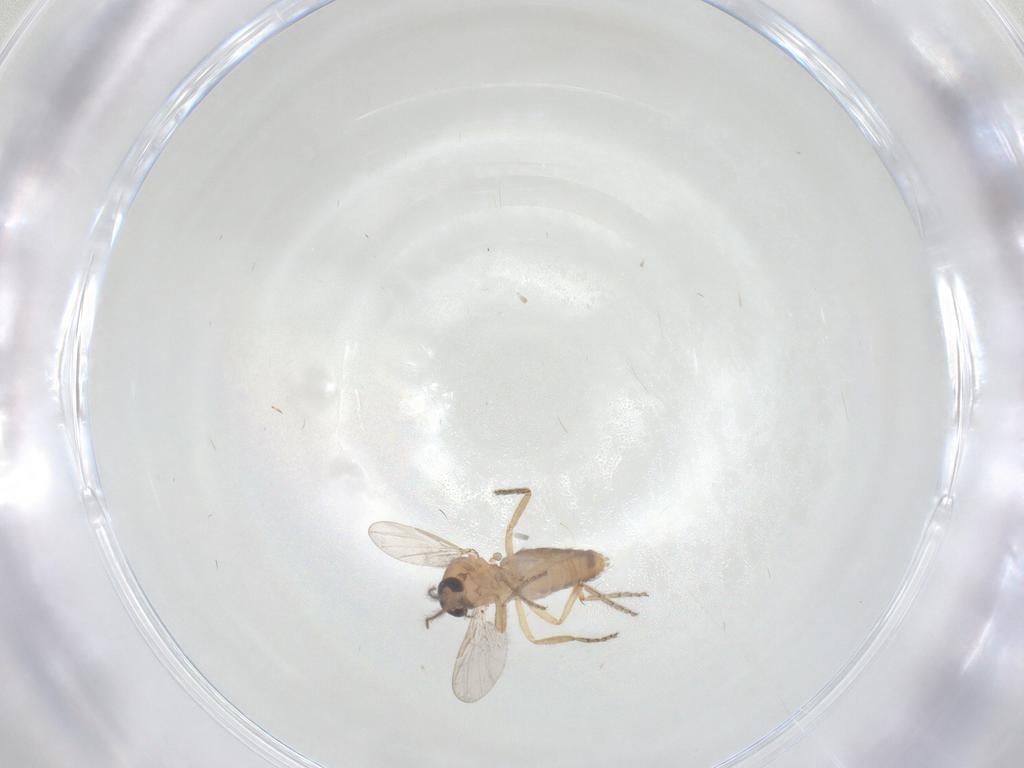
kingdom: Animalia
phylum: Arthropoda
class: Insecta
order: Diptera
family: Ceratopogonidae
